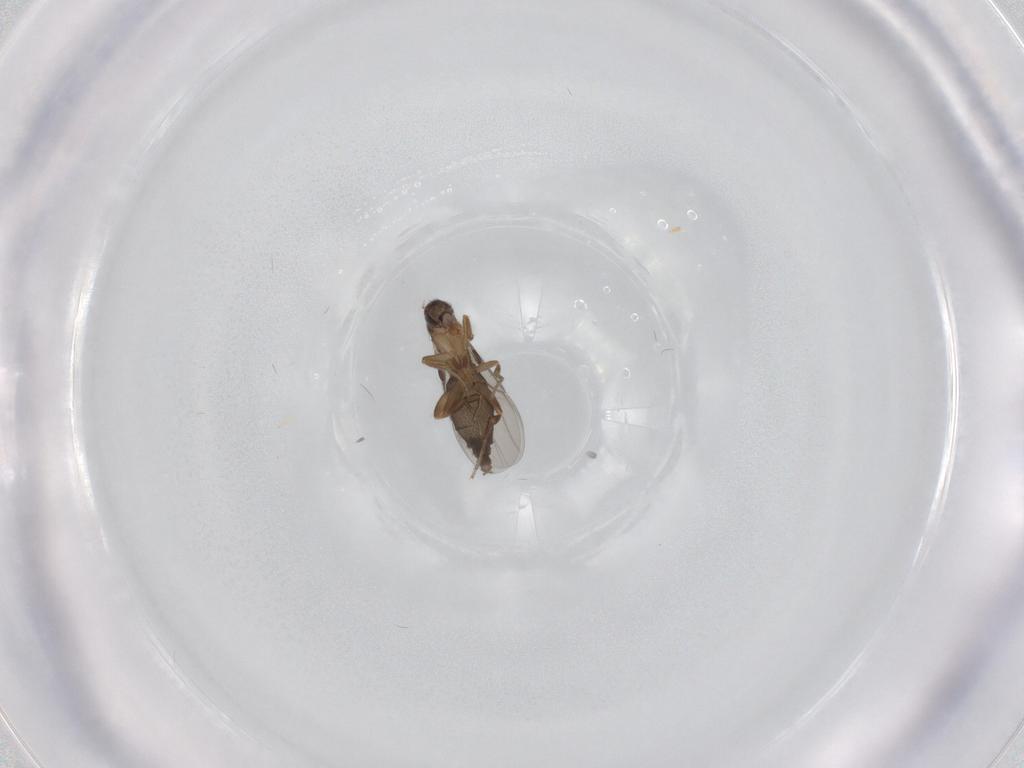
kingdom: Animalia
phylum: Arthropoda
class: Insecta
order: Diptera
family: Phoridae
